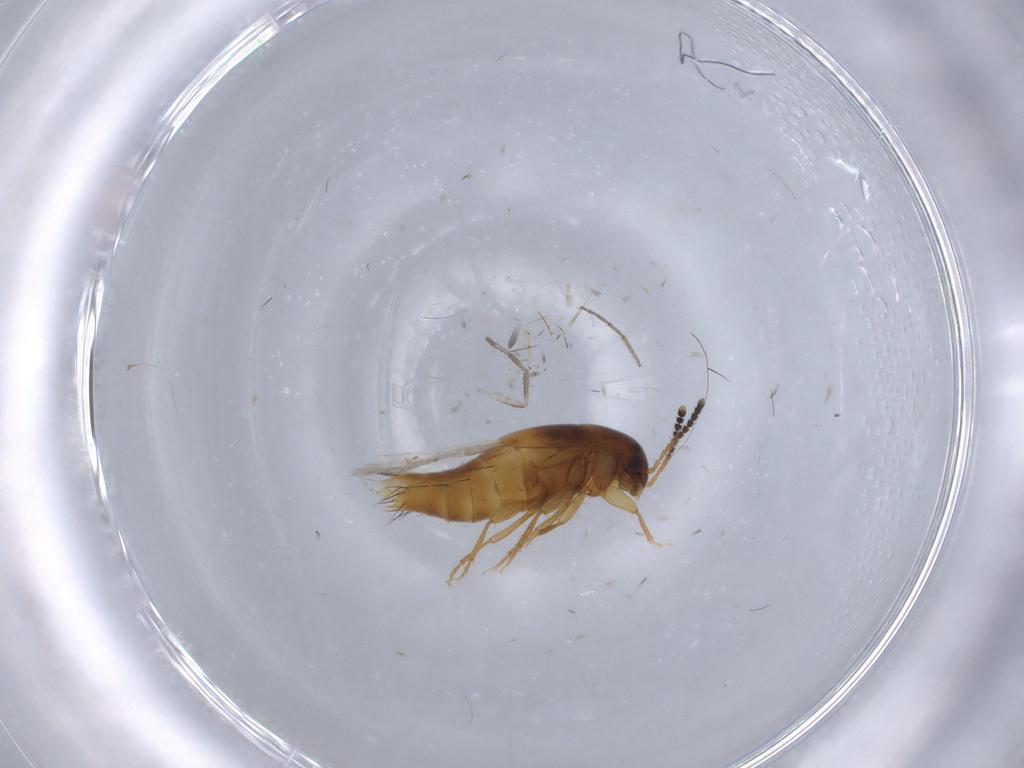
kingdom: Animalia
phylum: Arthropoda
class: Insecta
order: Coleoptera
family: Staphylinidae
